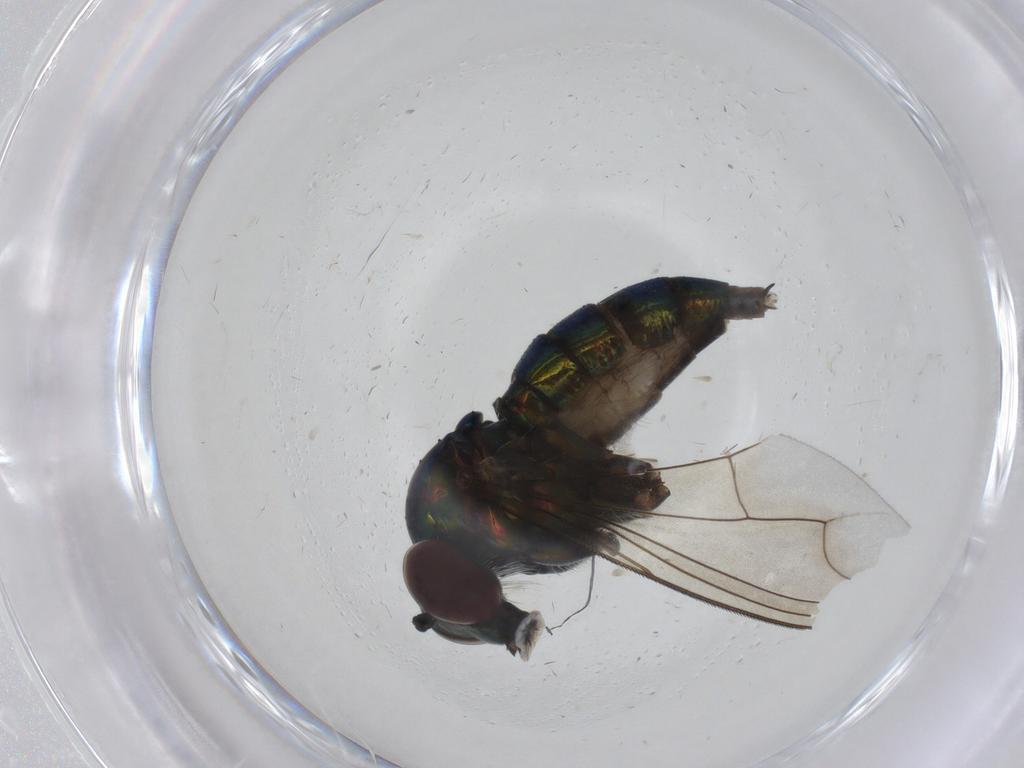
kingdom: Animalia
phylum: Arthropoda
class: Insecta
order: Diptera
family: Dolichopodidae
